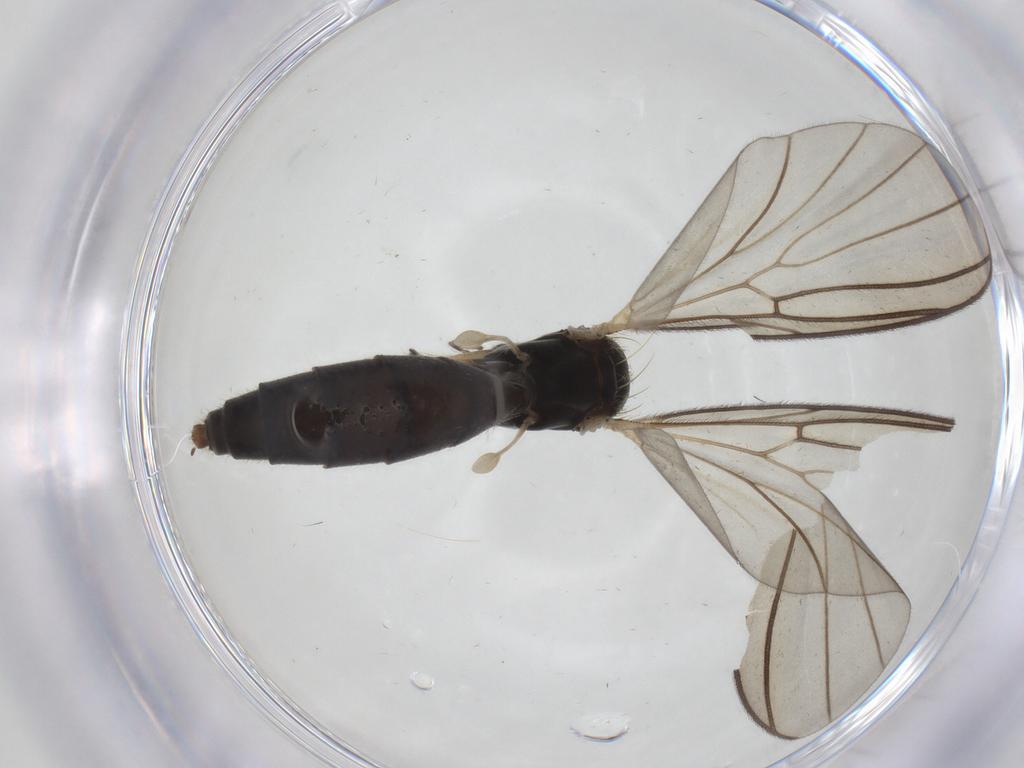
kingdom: Animalia
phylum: Arthropoda
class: Insecta
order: Diptera
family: Mycetophilidae
